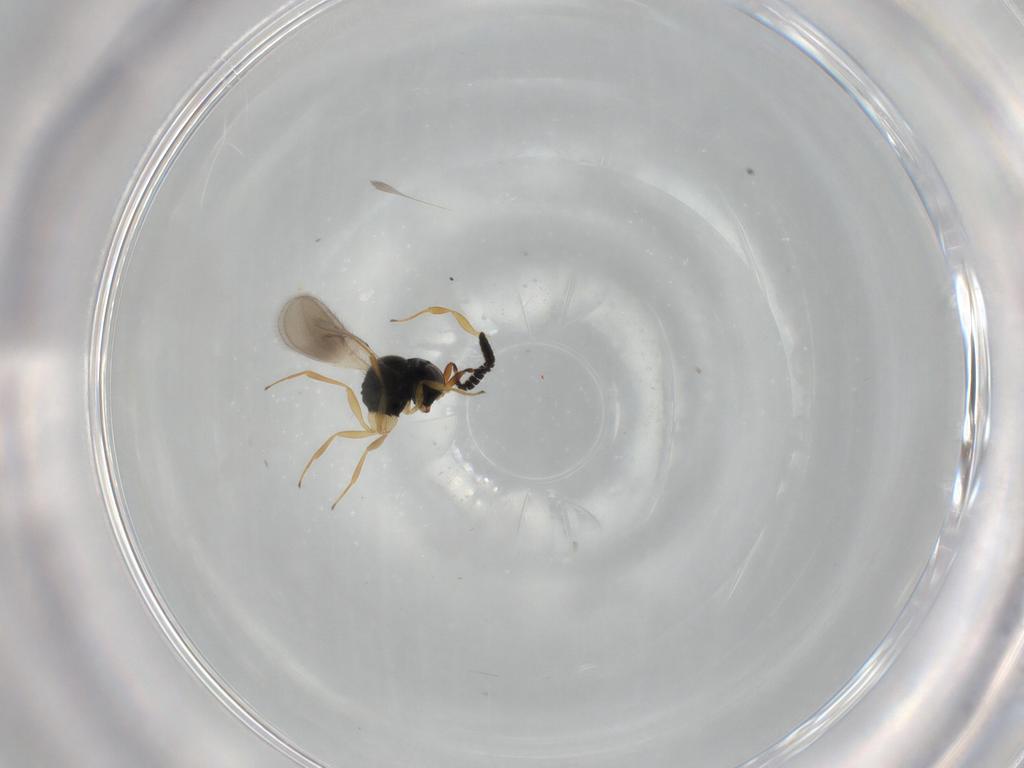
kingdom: Animalia
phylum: Arthropoda
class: Insecta
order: Hymenoptera
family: Scelionidae
